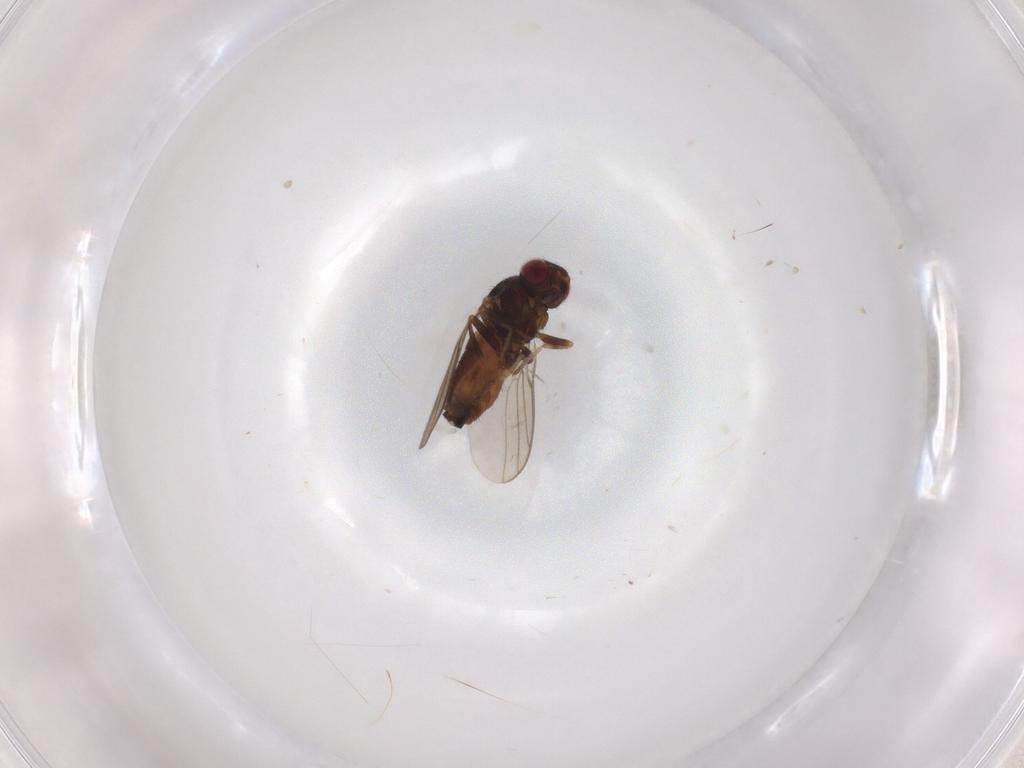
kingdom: Animalia
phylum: Arthropoda
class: Insecta
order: Diptera
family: Chloropidae
